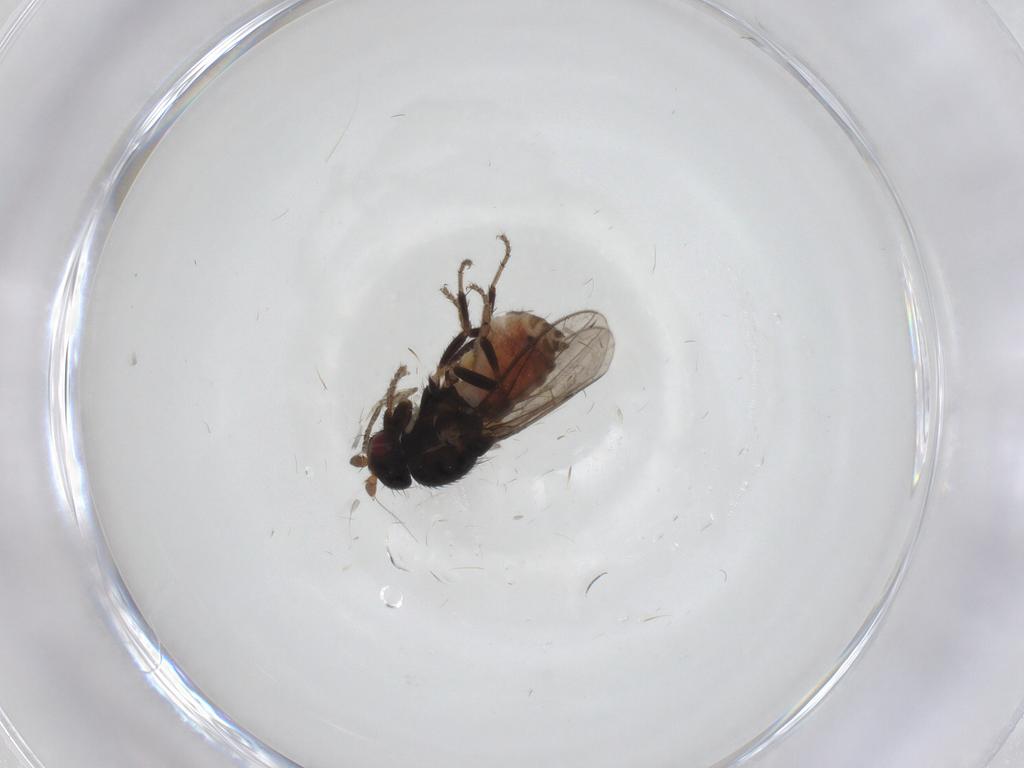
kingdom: Animalia
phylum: Arthropoda
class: Insecta
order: Diptera
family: Sphaeroceridae
